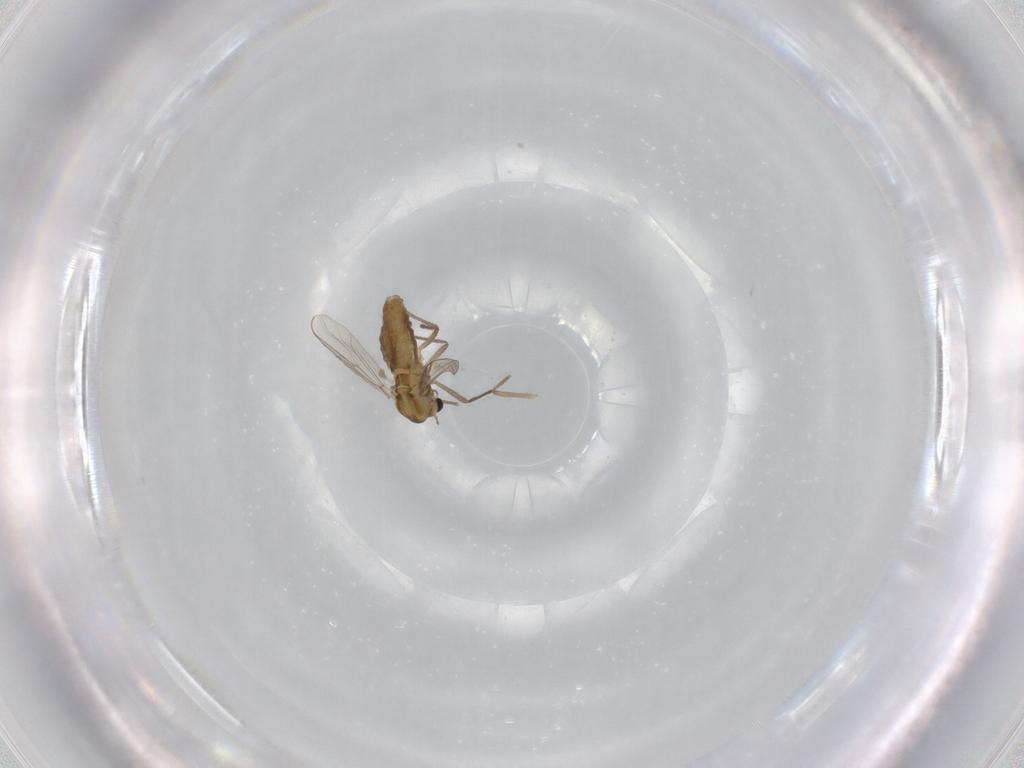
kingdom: Animalia
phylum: Arthropoda
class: Insecta
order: Diptera
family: Chironomidae
